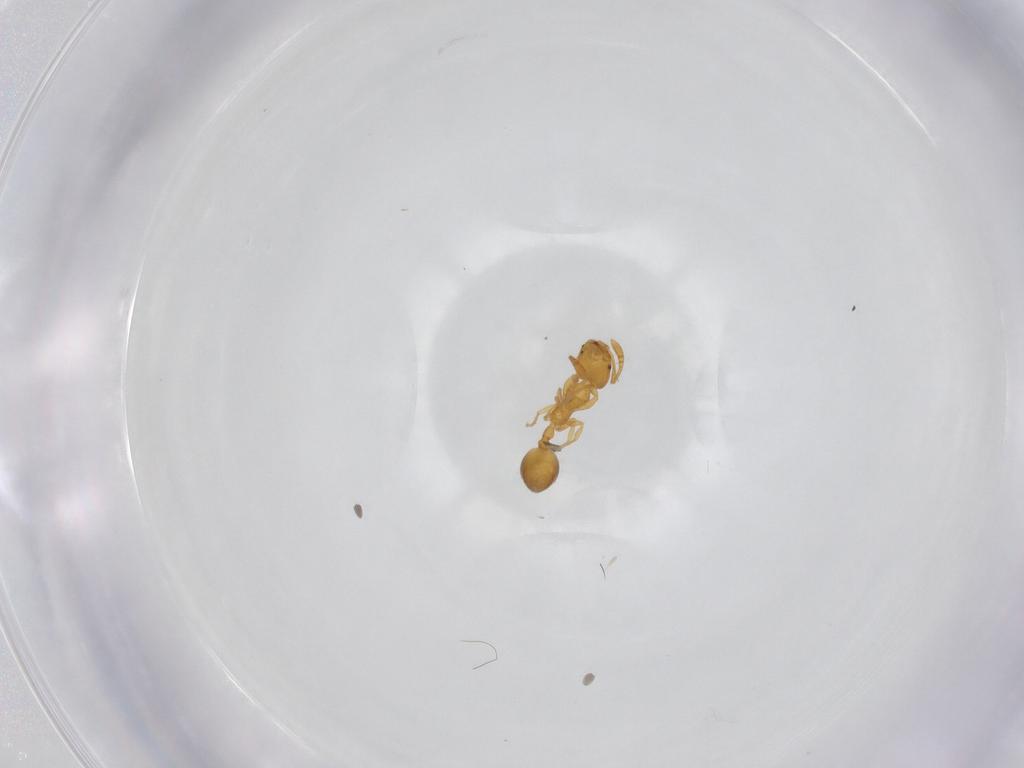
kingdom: Animalia
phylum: Arthropoda
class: Insecta
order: Hymenoptera
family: Formicidae
